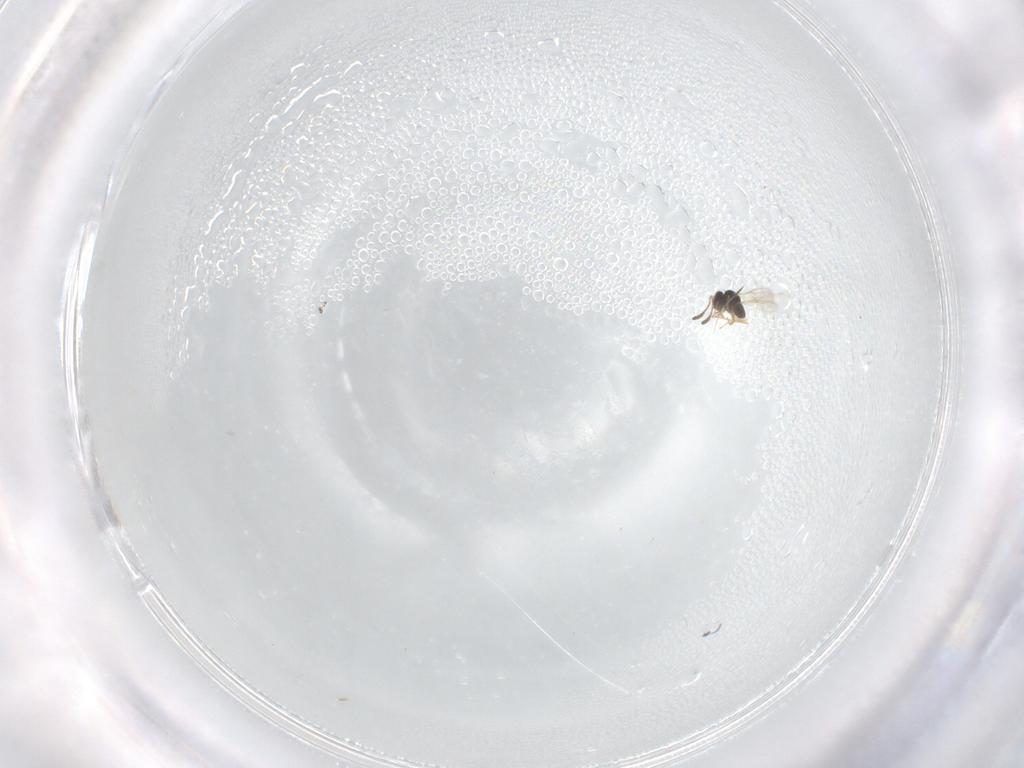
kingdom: Animalia
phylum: Arthropoda
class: Insecta
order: Hymenoptera
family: Scelionidae
